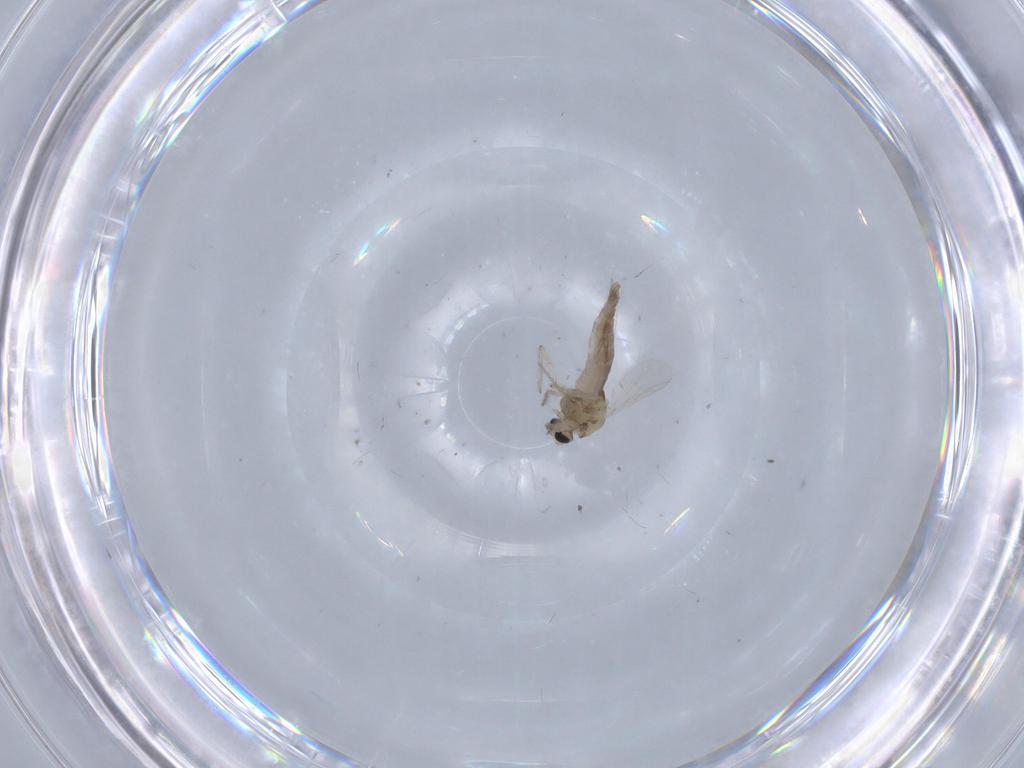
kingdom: Animalia
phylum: Arthropoda
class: Insecta
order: Diptera
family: Chironomidae
